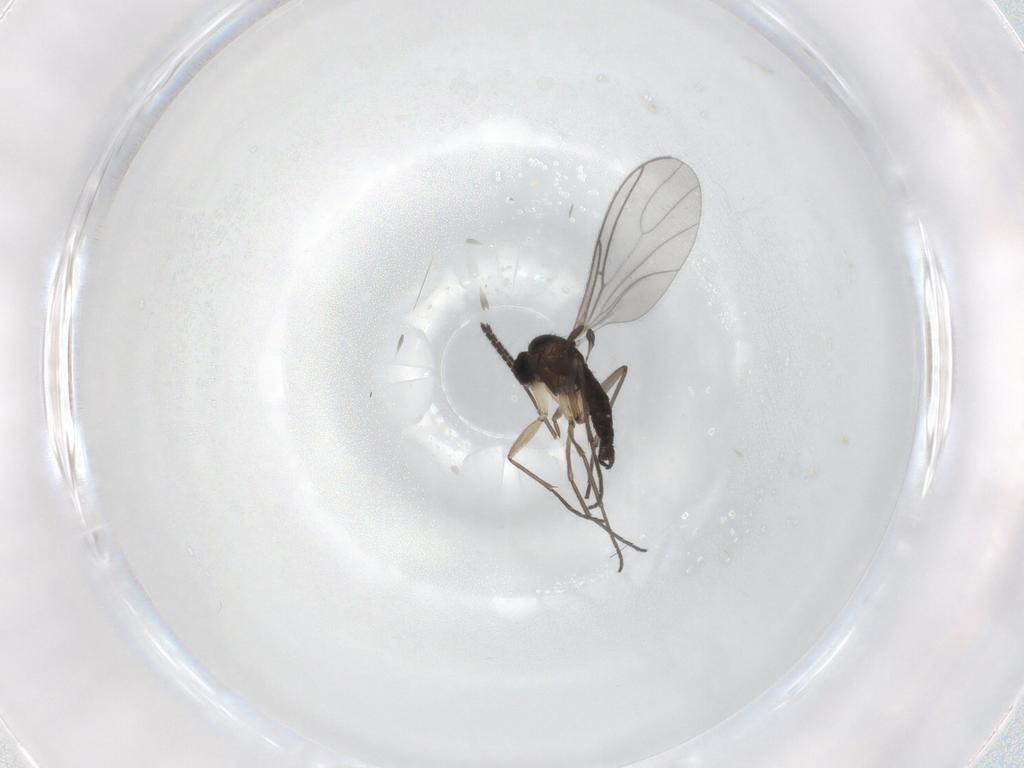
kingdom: Animalia
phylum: Arthropoda
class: Insecta
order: Diptera
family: Sciaridae
